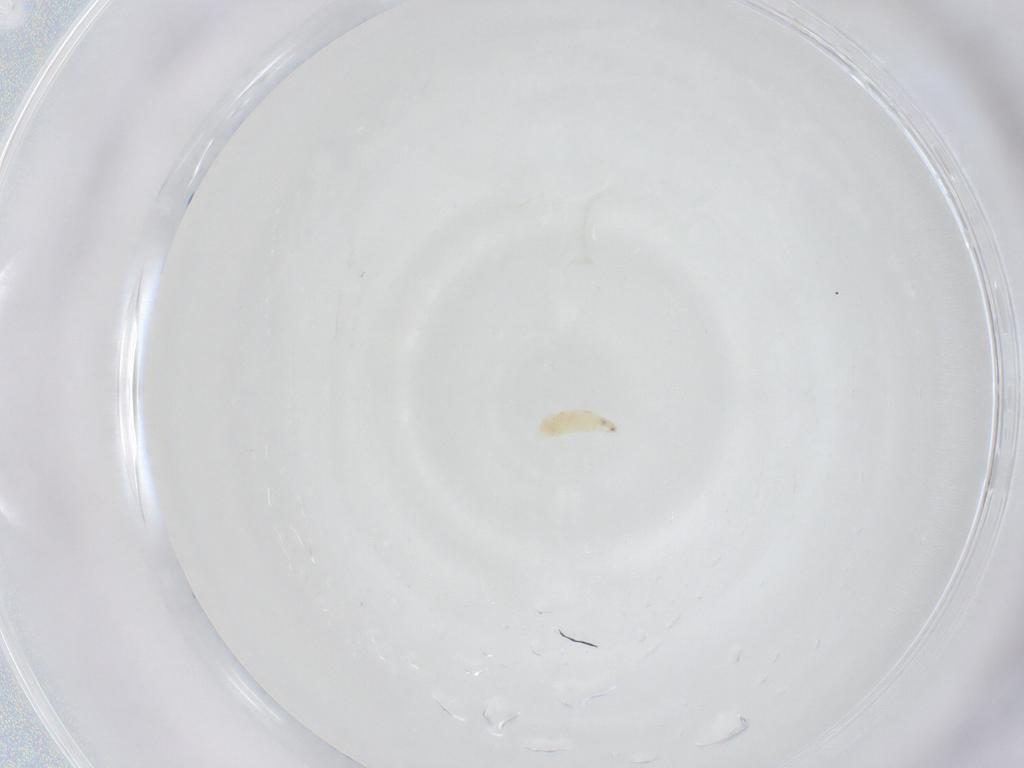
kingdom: Animalia
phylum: Arthropoda
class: Insecta
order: Diptera
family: Sarcophagidae
